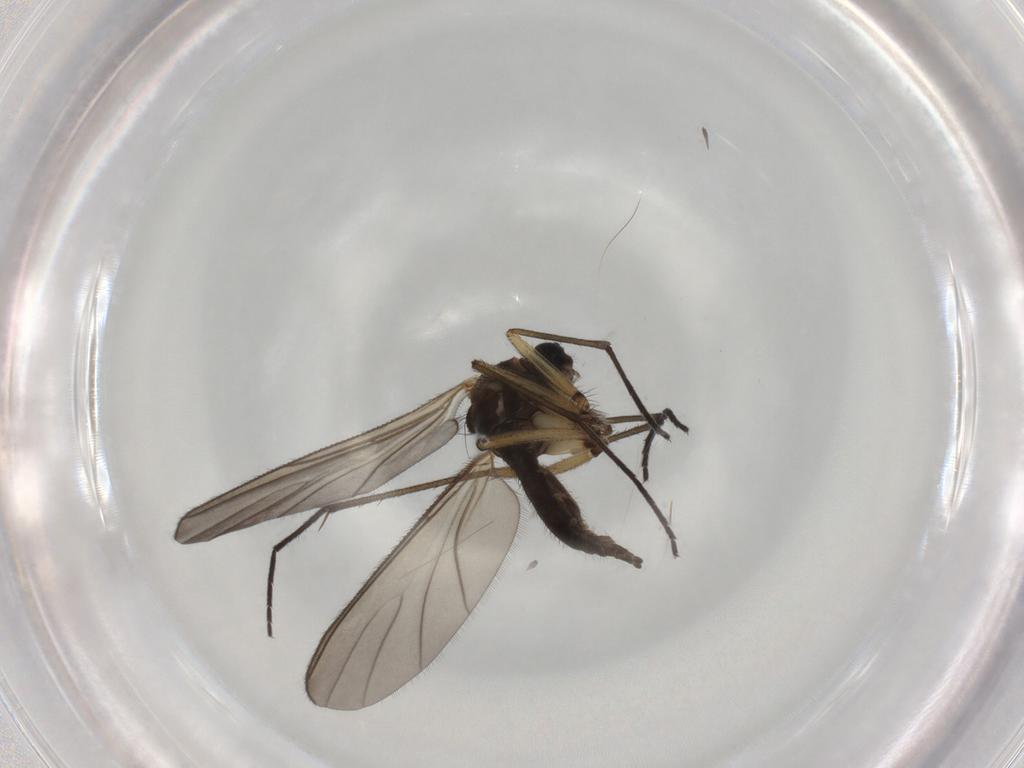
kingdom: Animalia
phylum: Arthropoda
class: Insecta
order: Diptera
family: Sciaridae
